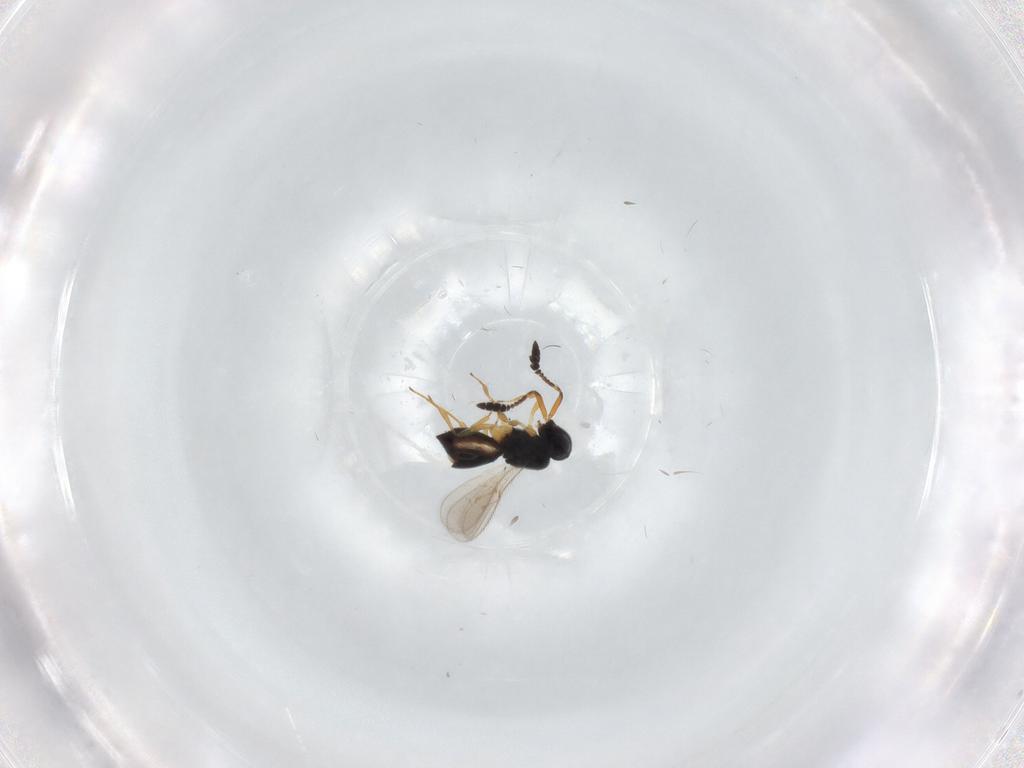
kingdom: Animalia
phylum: Arthropoda
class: Insecta
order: Hymenoptera
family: Scelionidae
